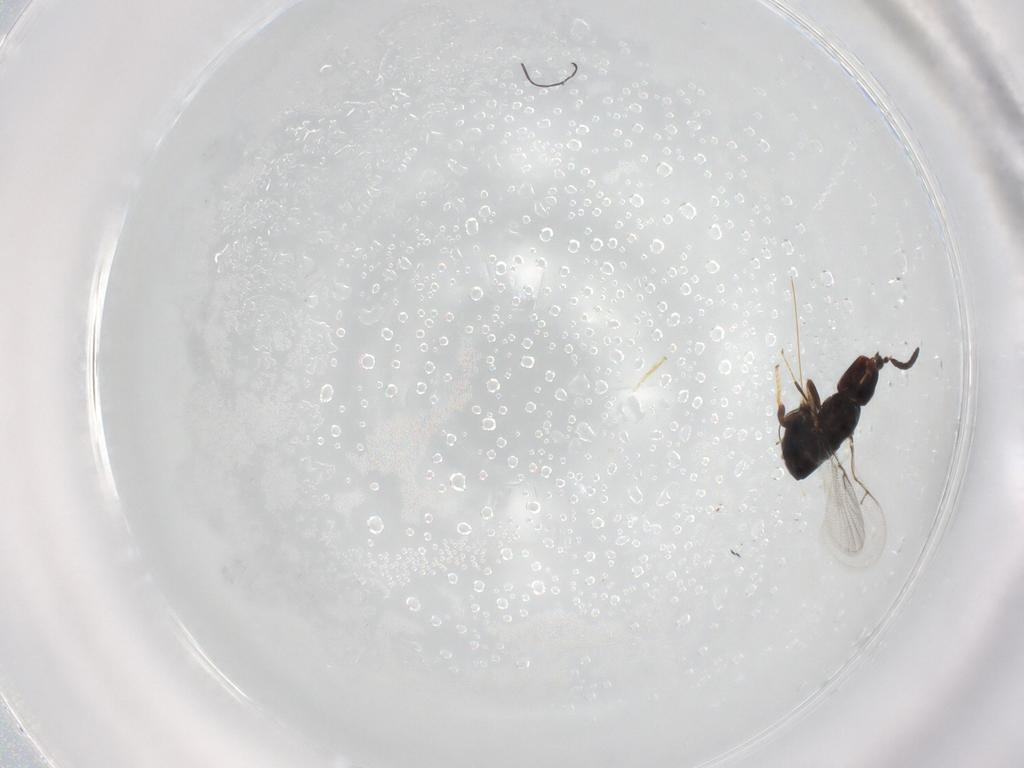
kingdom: Animalia
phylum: Arthropoda
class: Insecta
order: Hymenoptera
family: Agaonidae
